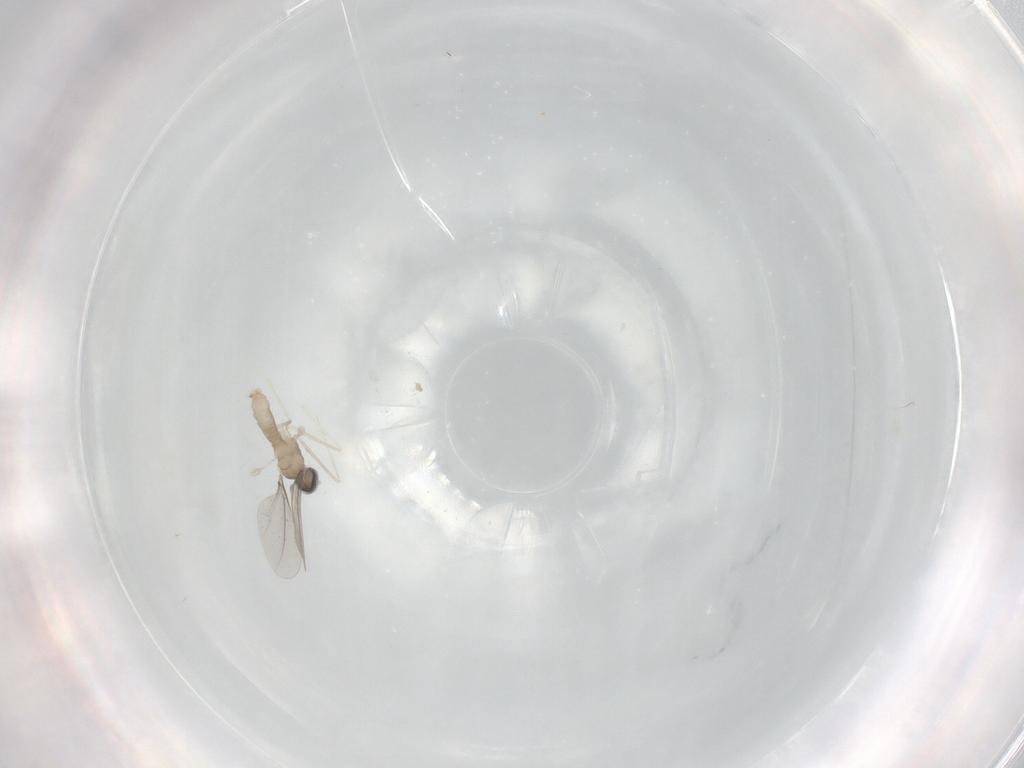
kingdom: Animalia
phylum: Arthropoda
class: Insecta
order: Diptera
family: Cecidomyiidae
